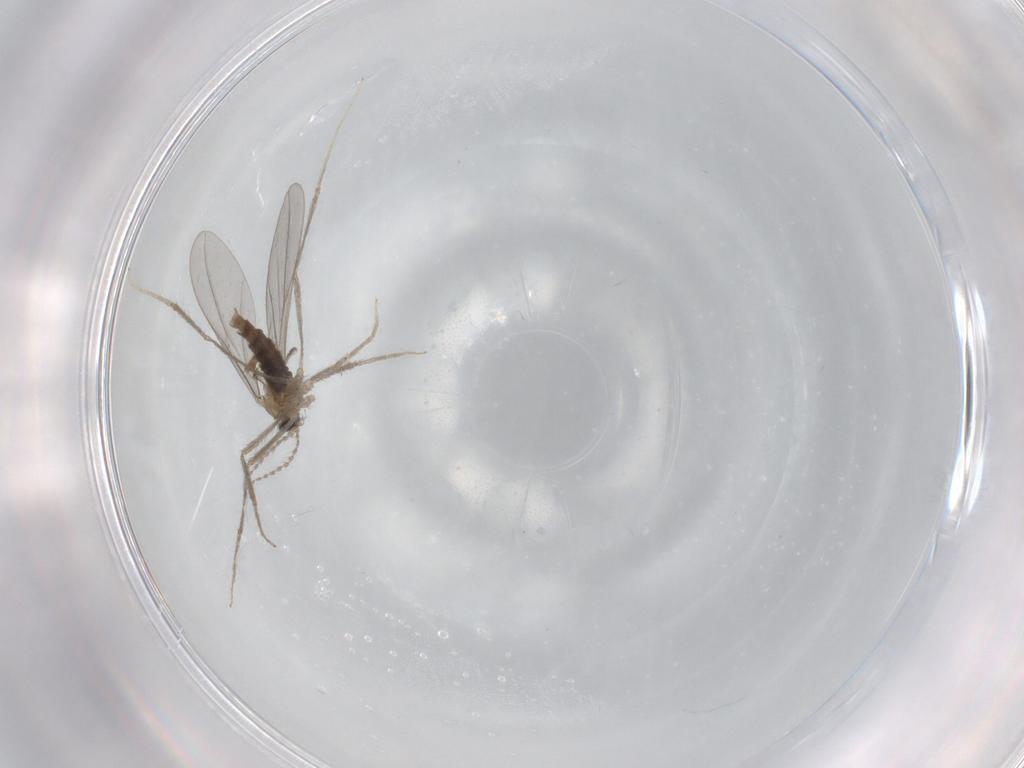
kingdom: Animalia
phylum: Arthropoda
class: Insecta
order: Diptera
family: Cecidomyiidae
